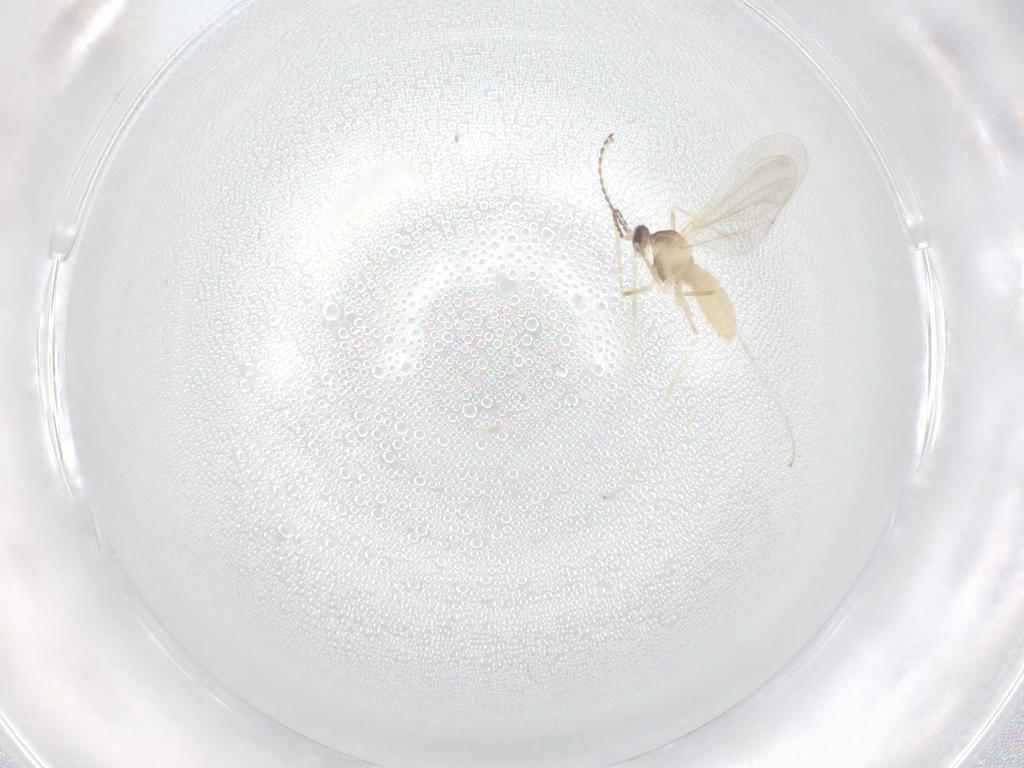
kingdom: Animalia
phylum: Arthropoda
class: Insecta
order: Diptera
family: Cecidomyiidae
